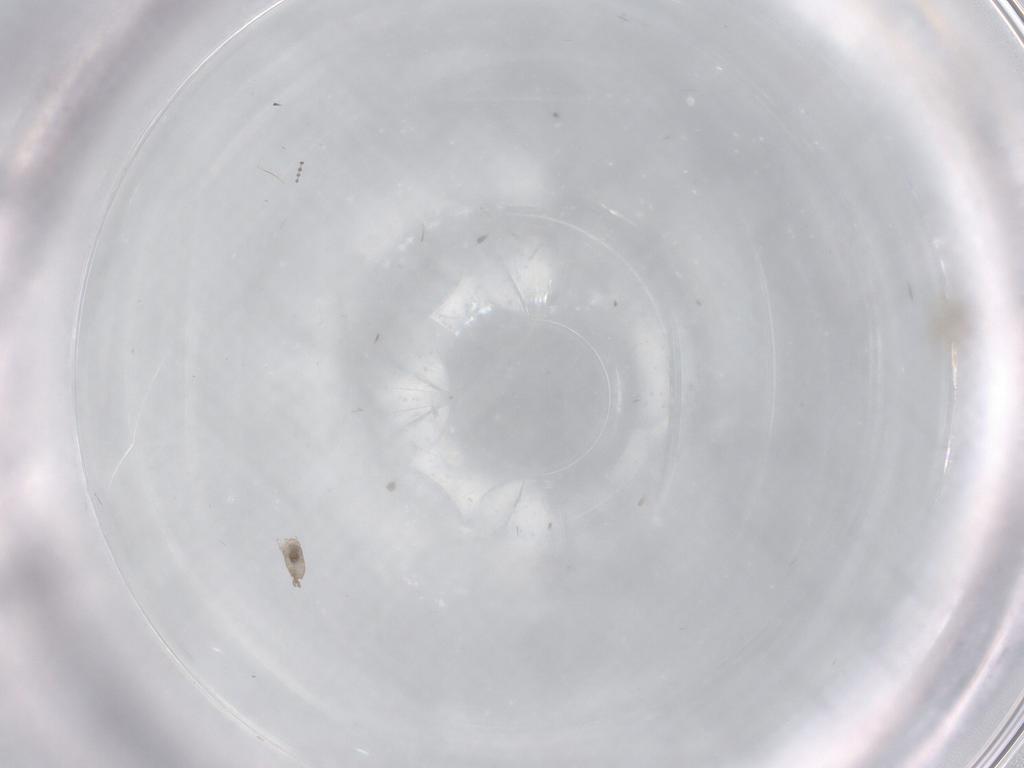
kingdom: Animalia
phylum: Arthropoda
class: Insecta
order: Diptera
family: Cecidomyiidae
